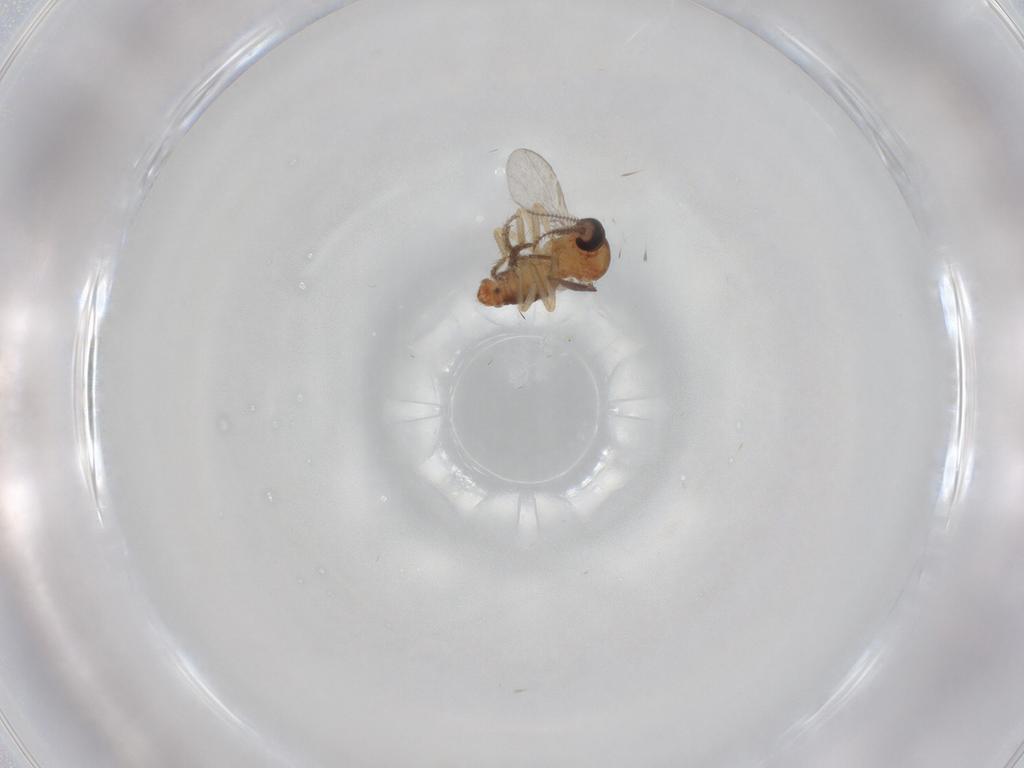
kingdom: Animalia
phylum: Arthropoda
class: Insecta
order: Diptera
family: Ceratopogonidae
